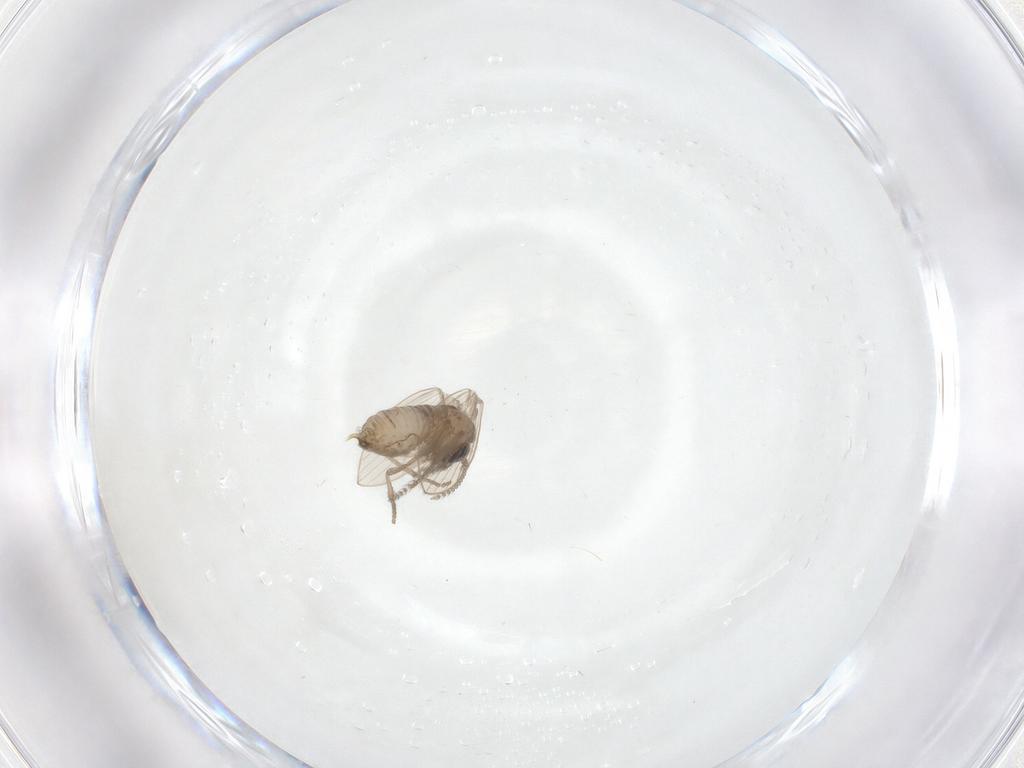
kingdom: Animalia
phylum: Arthropoda
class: Insecta
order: Diptera
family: Psychodidae
